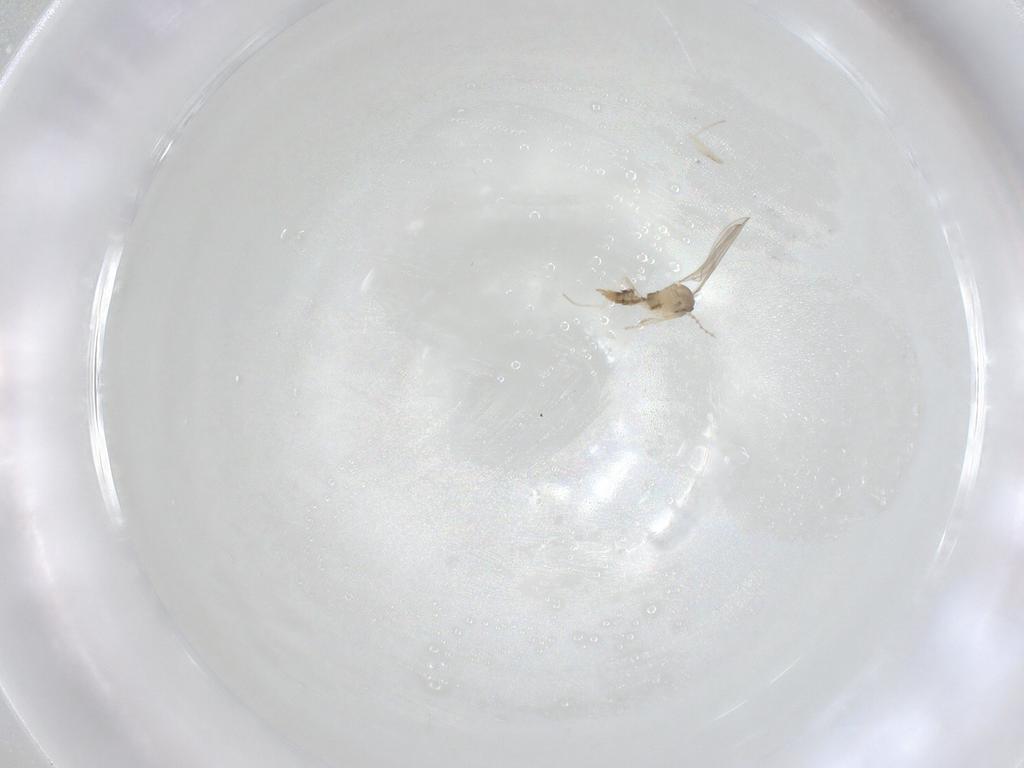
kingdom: Animalia
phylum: Arthropoda
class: Insecta
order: Diptera
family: Cecidomyiidae
